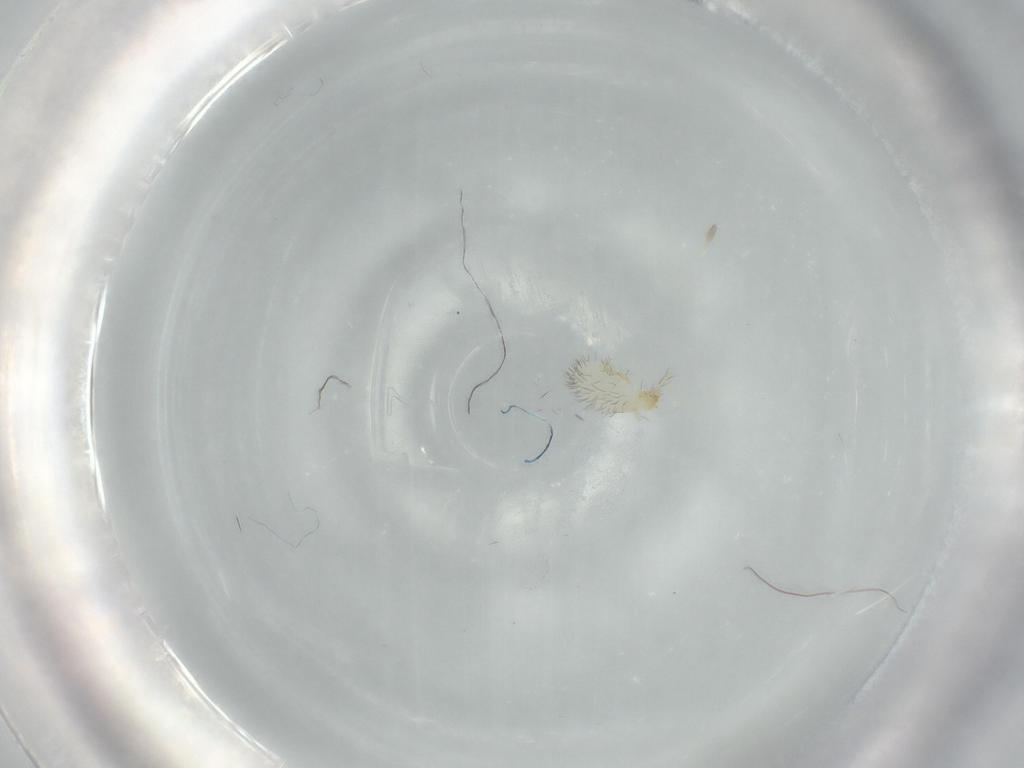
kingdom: Animalia
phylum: Arthropoda
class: Arachnida
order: Trombidiformes
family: Erythraeidae
